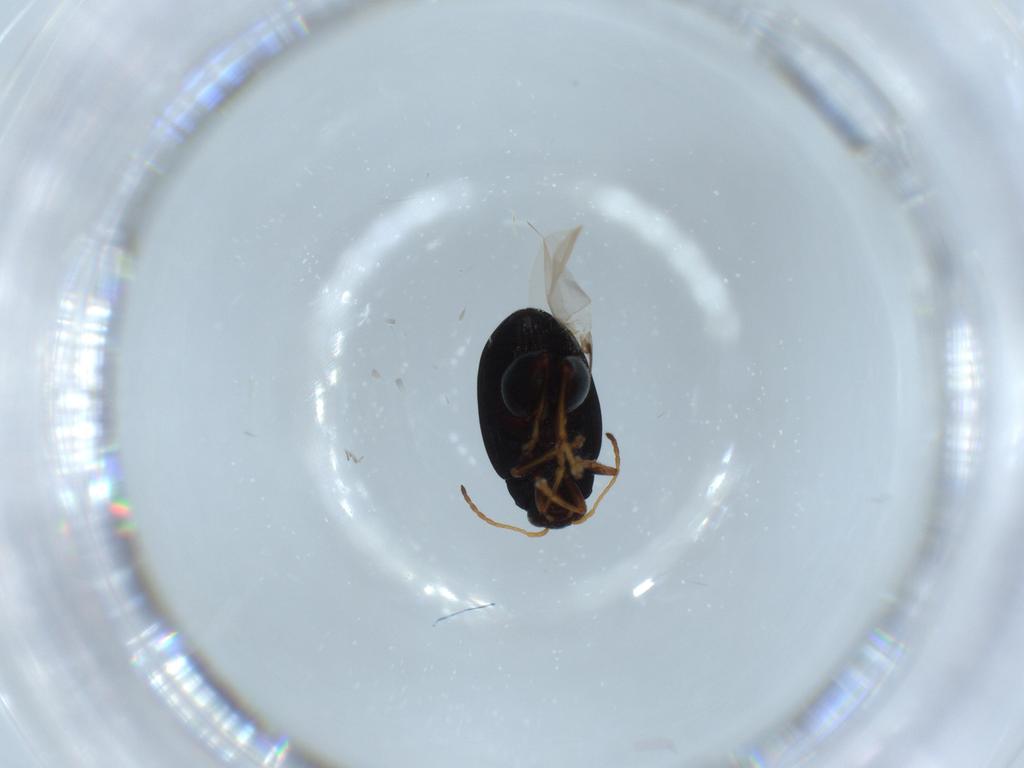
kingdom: Animalia
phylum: Arthropoda
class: Insecta
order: Coleoptera
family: Chrysomelidae
